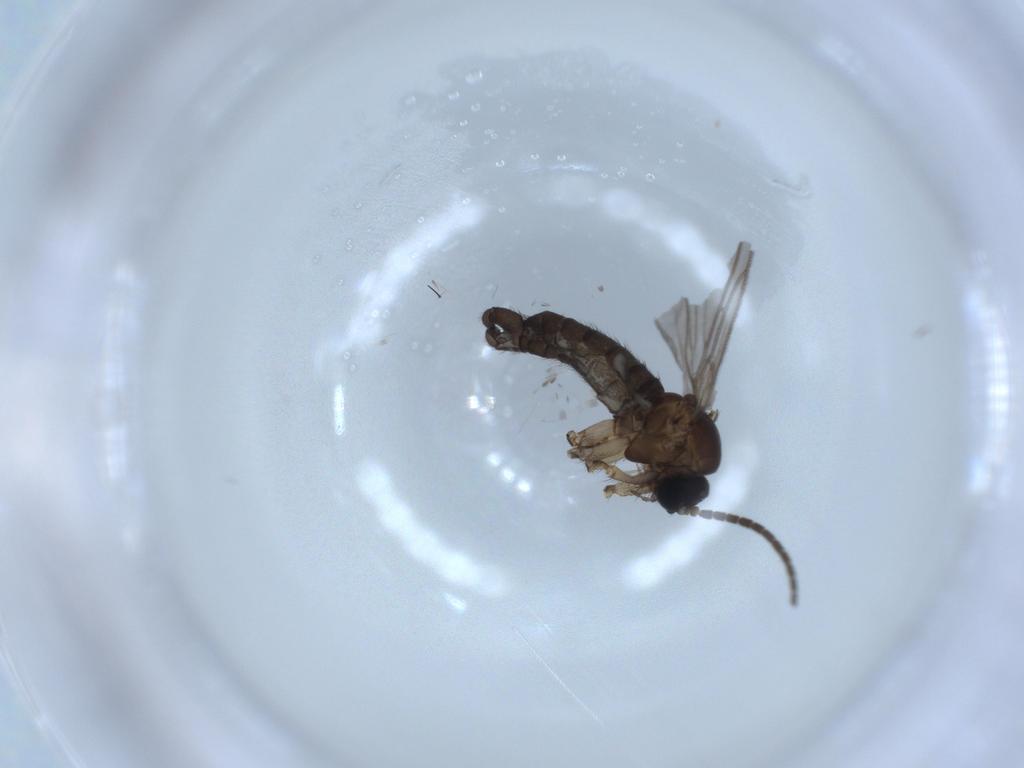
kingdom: Animalia
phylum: Arthropoda
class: Insecta
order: Diptera
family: Sciaridae
